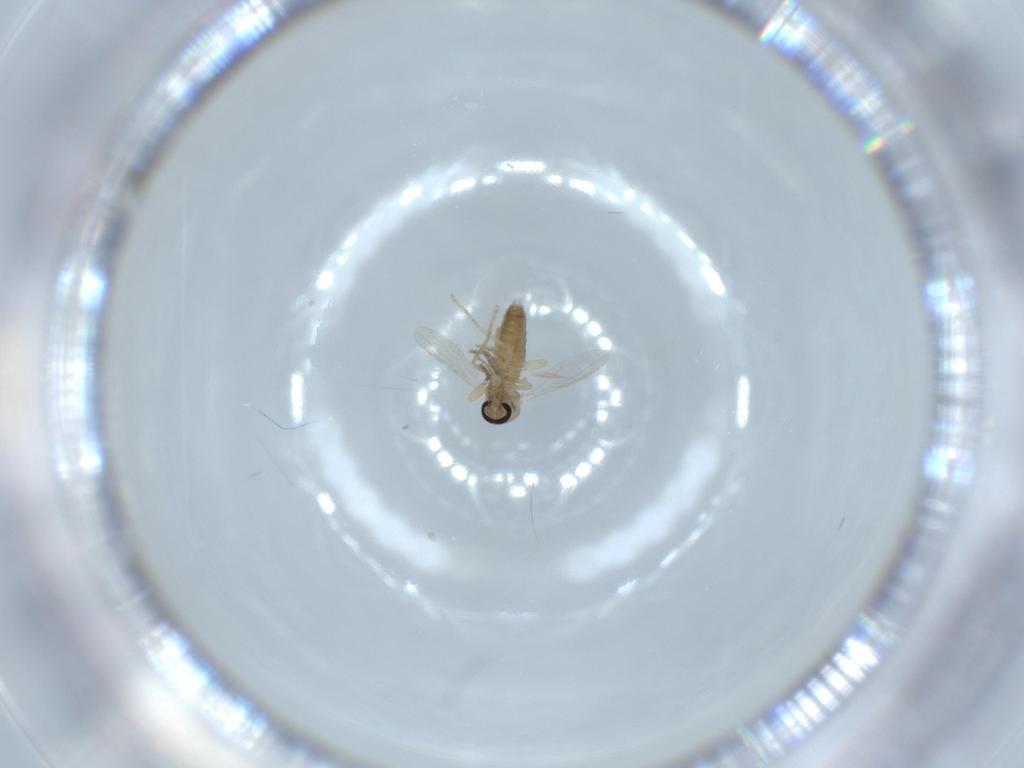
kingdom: Animalia
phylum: Arthropoda
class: Insecta
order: Diptera
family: Ceratopogonidae
